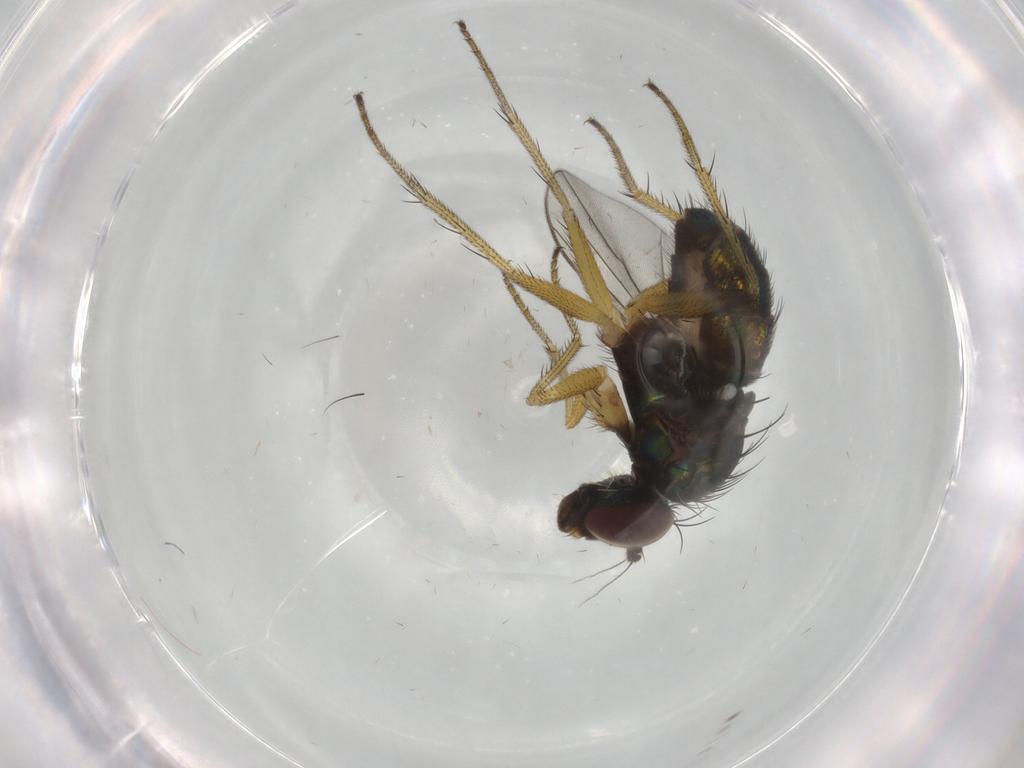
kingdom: Animalia
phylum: Arthropoda
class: Insecta
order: Diptera
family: Dolichopodidae
